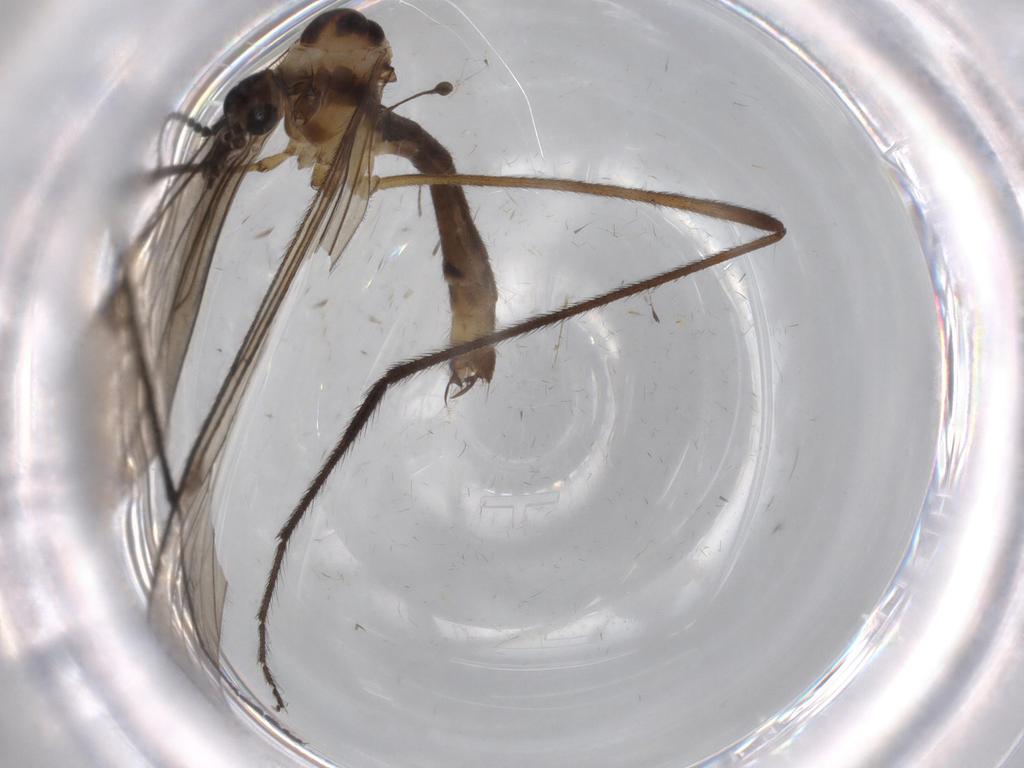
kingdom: Animalia
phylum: Arthropoda
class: Insecta
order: Diptera
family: Limoniidae
